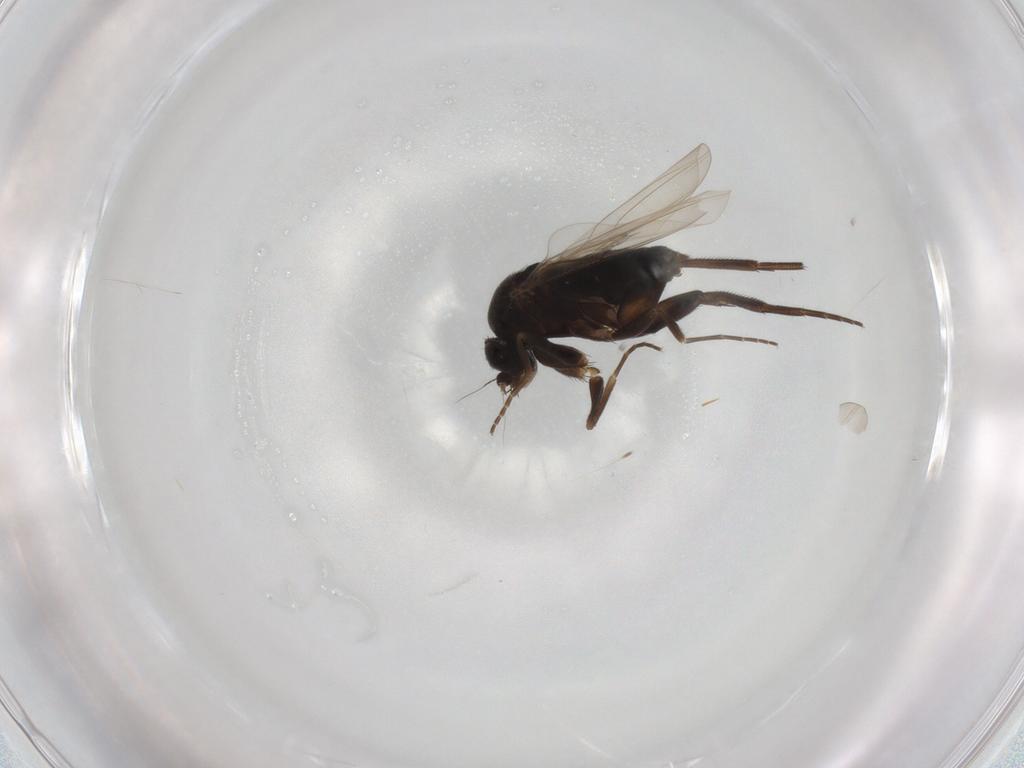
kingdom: Animalia
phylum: Arthropoda
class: Insecta
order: Diptera
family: Phoridae
